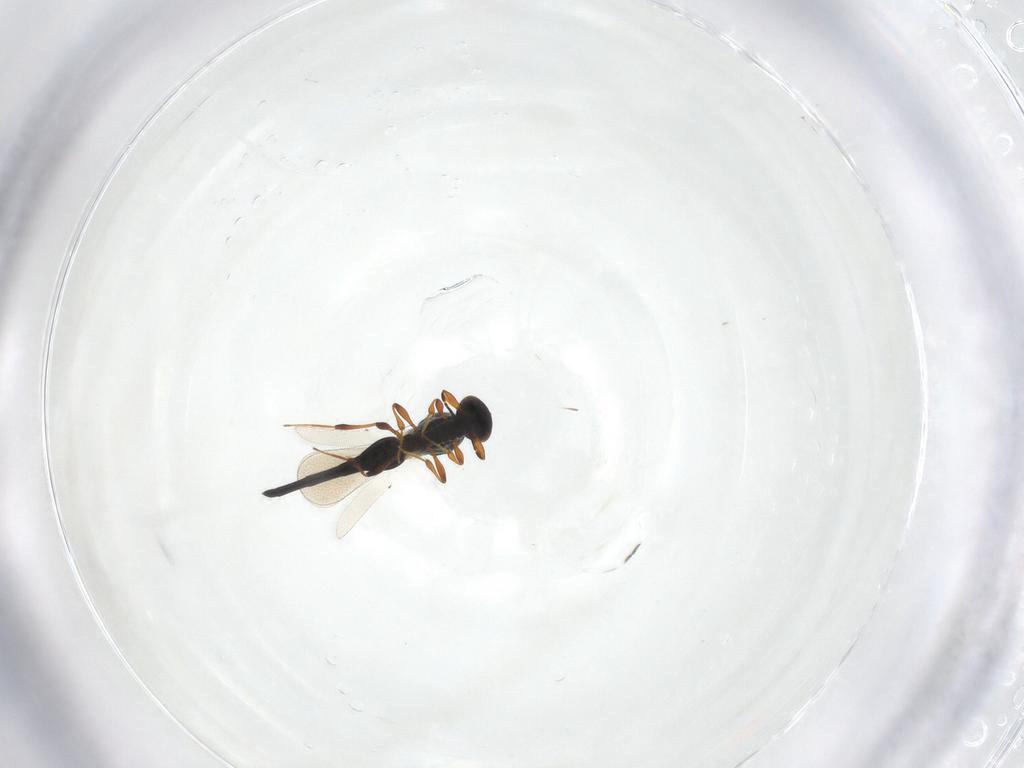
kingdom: Animalia
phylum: Arthropoda
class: Insecta
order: Hymenoptera
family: Platygastridae
